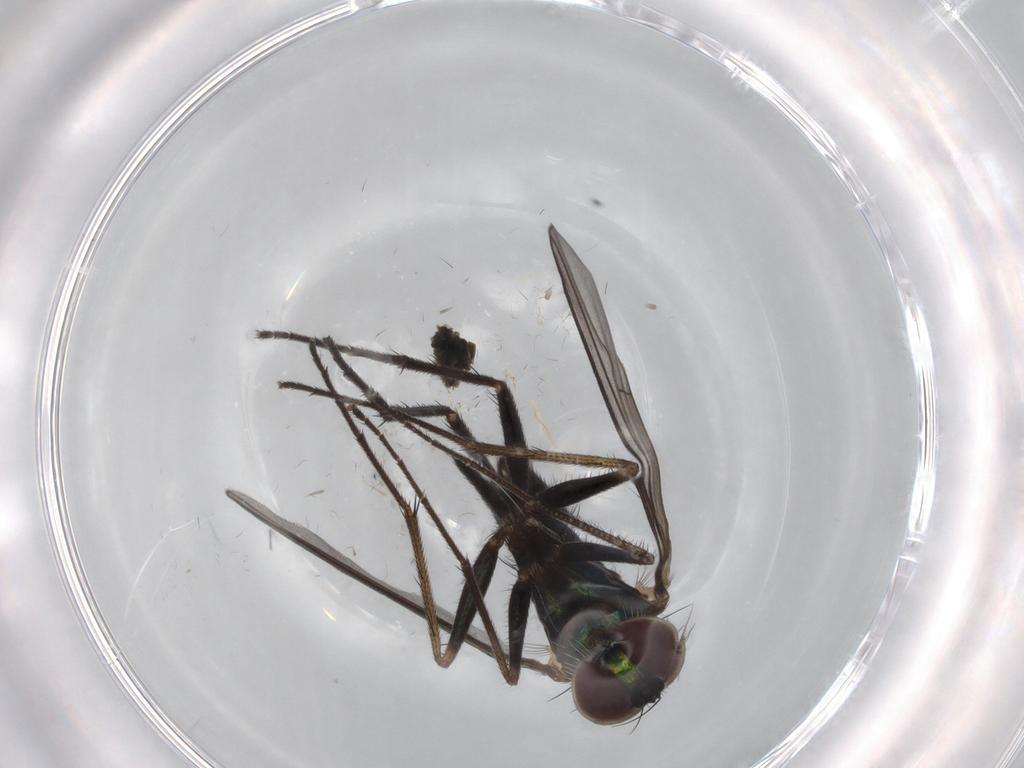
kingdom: Animalia
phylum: Arthropoda
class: Insecta
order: Diptera
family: Dolichopodidae
